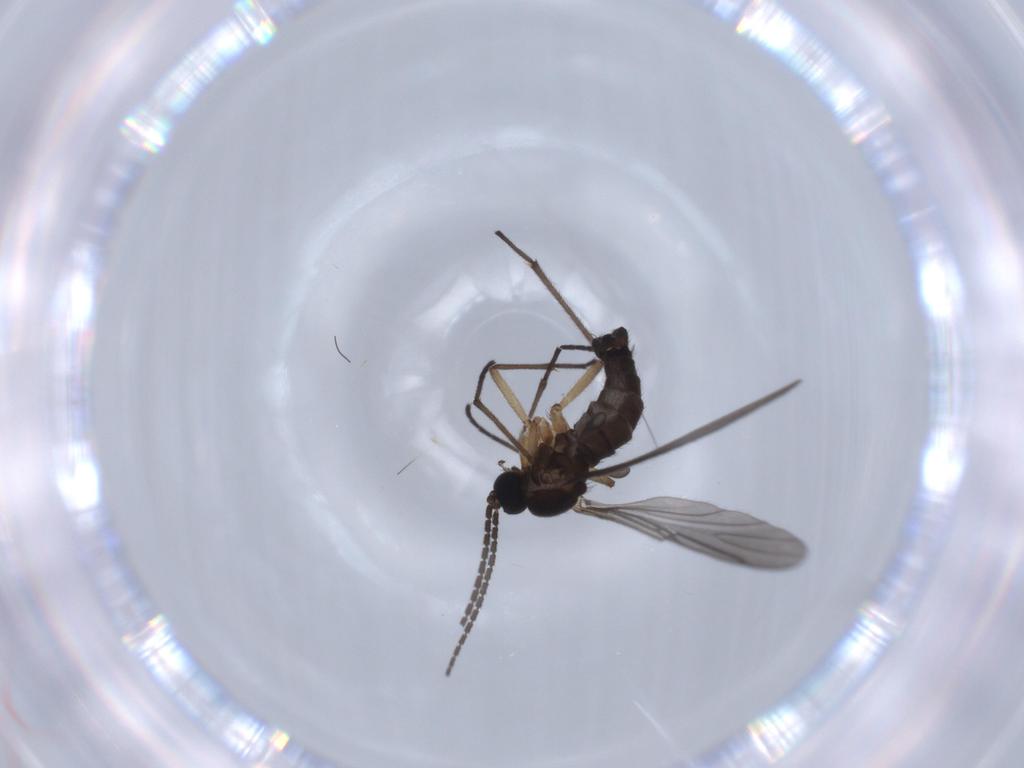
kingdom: Animalia
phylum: Arthropoda
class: Insecta
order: Diptera
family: Sciaridae
